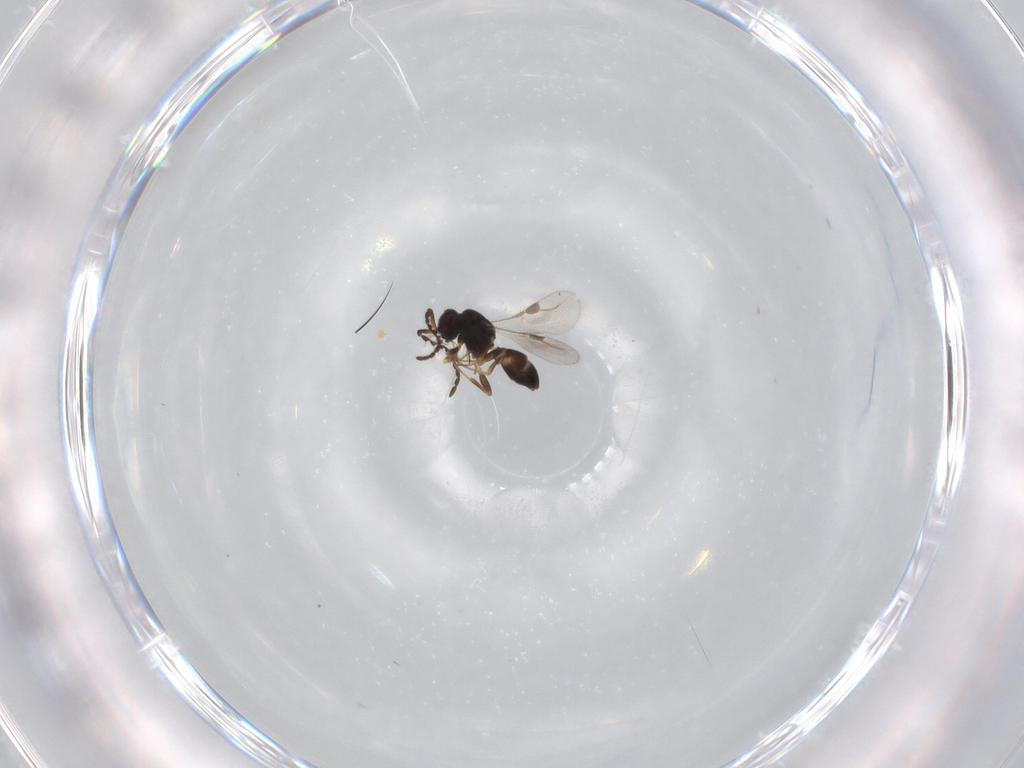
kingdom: Animalia
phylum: Arthropoda
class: Insecta
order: Hymenoptera
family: Megaspilidae
